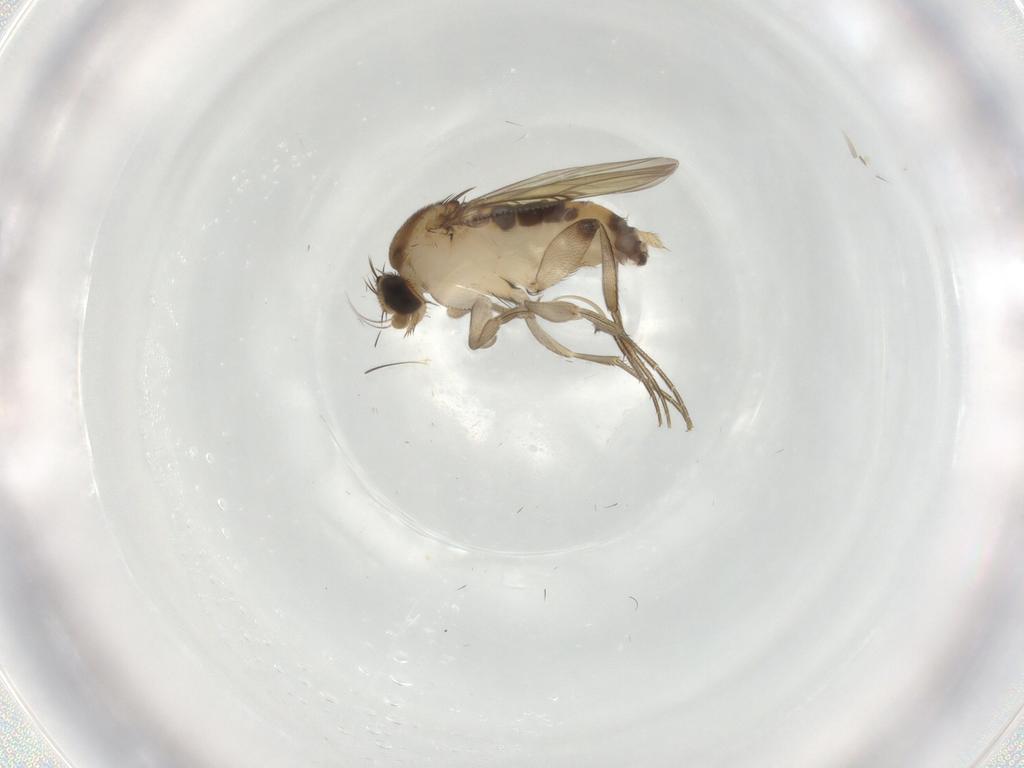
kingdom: Animalia
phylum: Arthropoda
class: Insecta
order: Diptera
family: Phoridae
